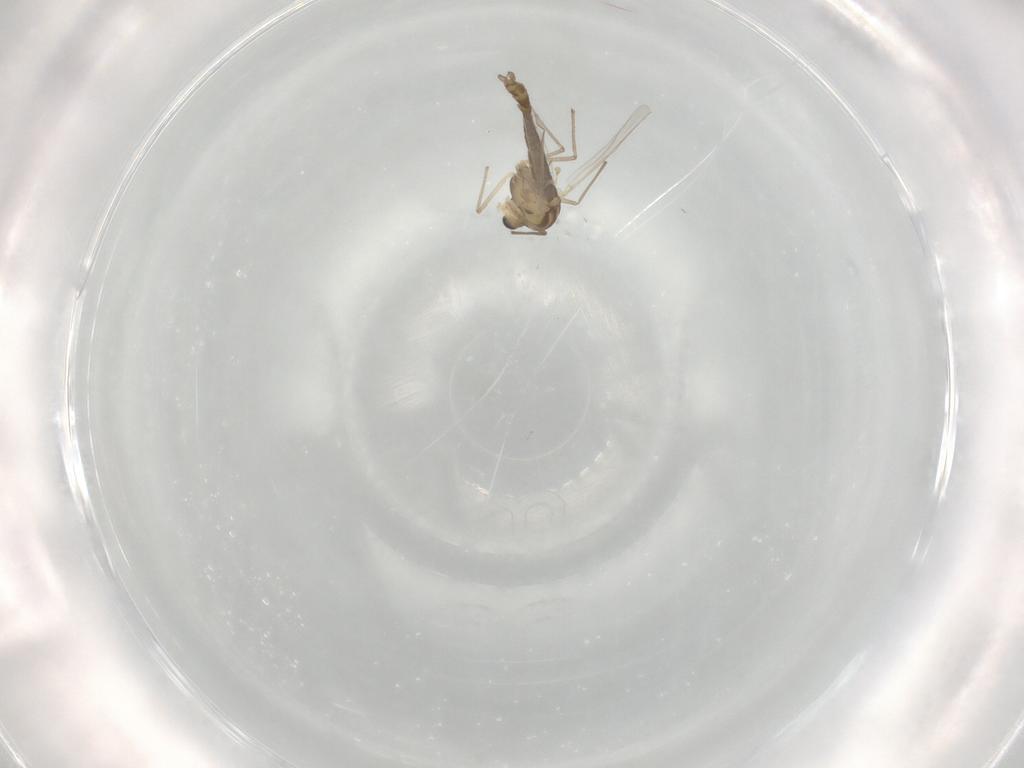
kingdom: Animalia
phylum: Arthropoda
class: Insecta
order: Diptera
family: Chironomidae
